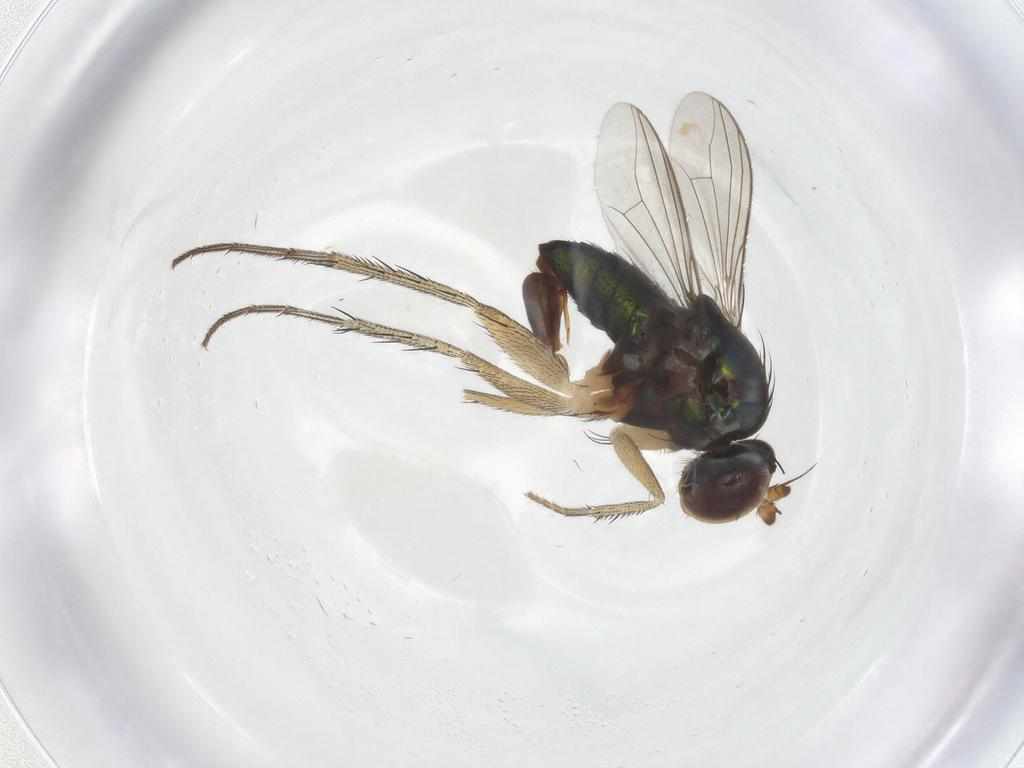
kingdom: Animalia
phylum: Arthropoda
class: Insecta
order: Diptera
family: Dolichopodidae
